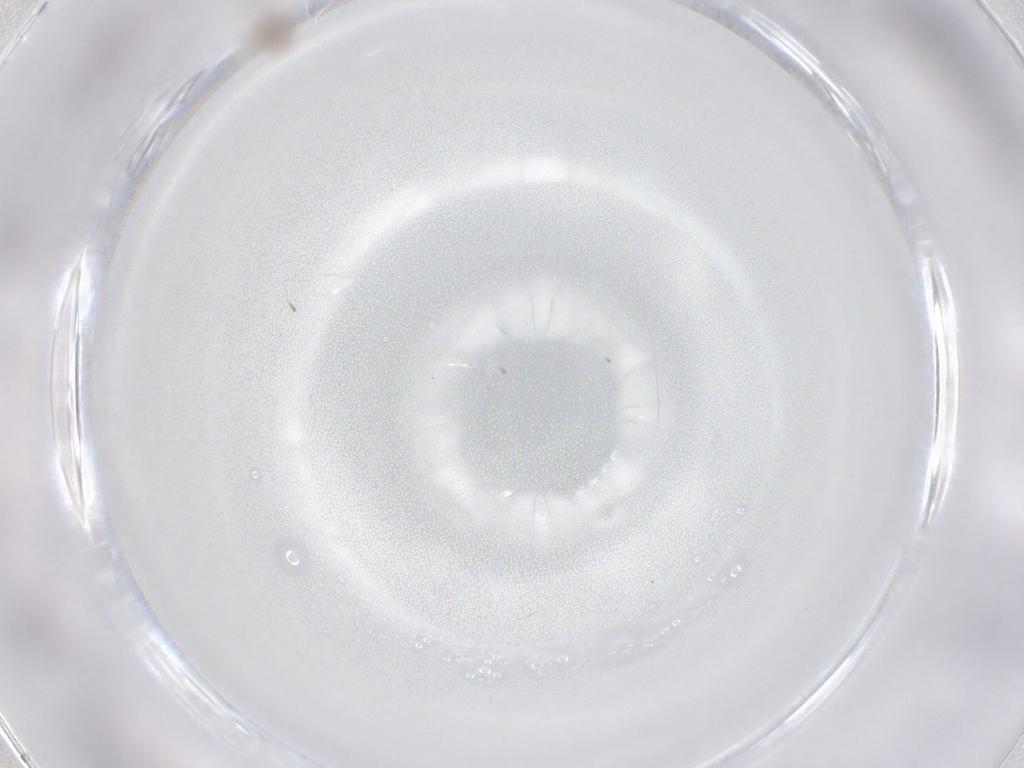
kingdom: Animalia
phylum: Arthropoda
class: Insecta
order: Diptera
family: Cecidomyiidae
